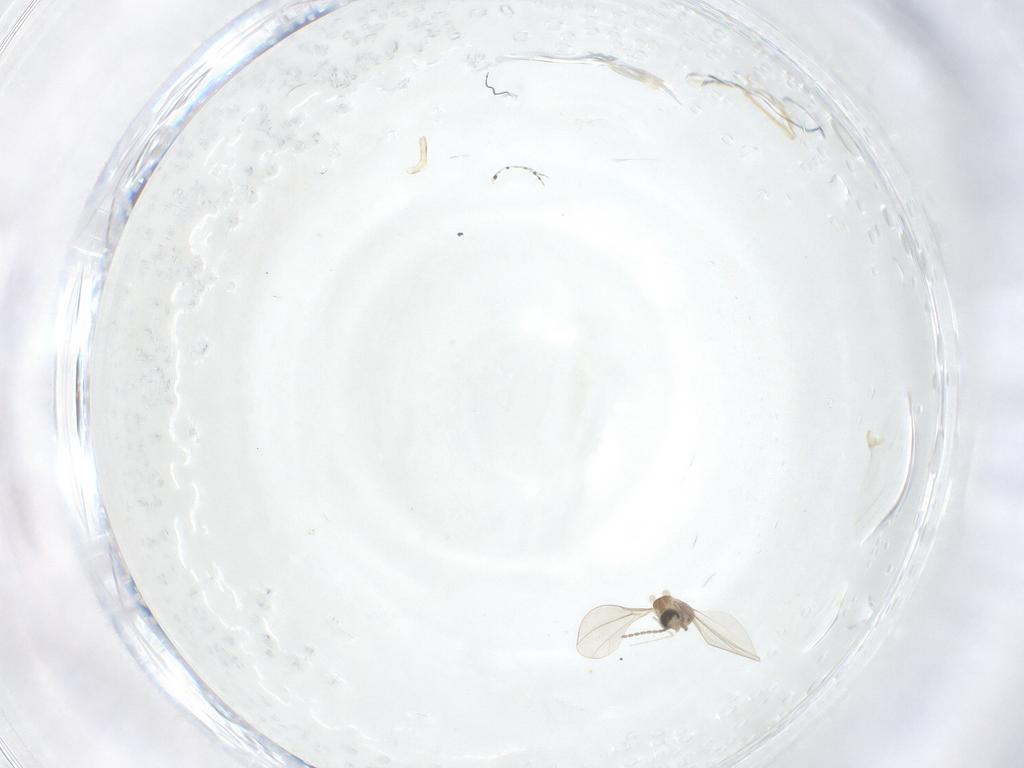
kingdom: Animalia
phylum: Arthropoda
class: Insecta
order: Diptera
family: Cecidomyiidae
